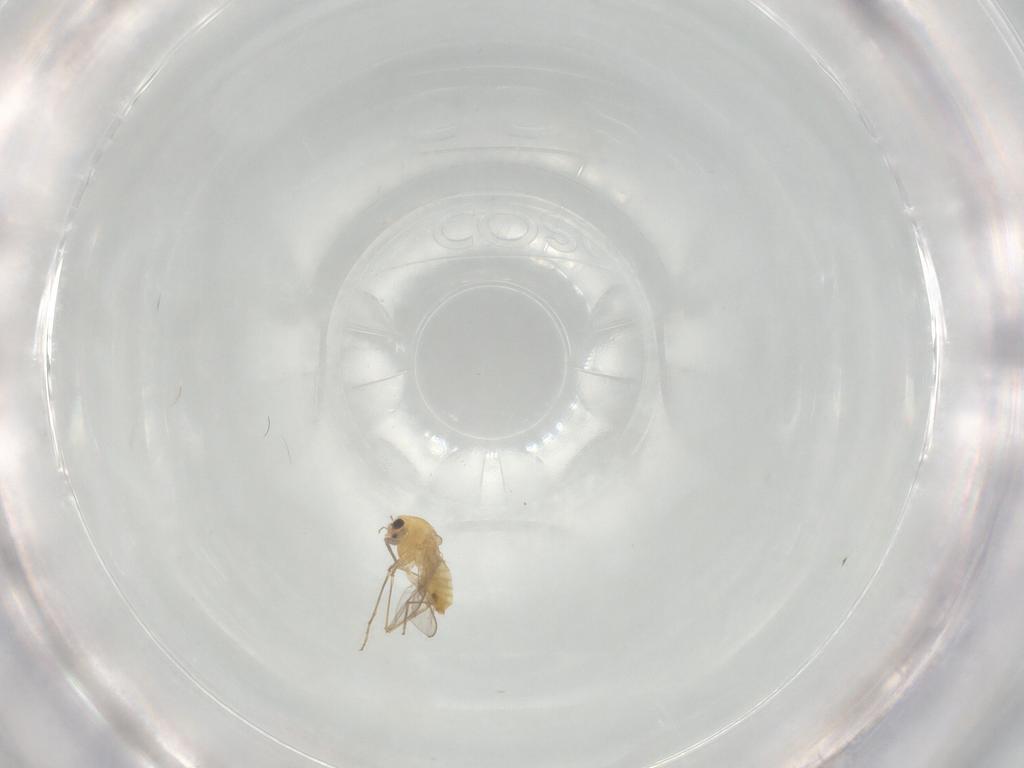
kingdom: Animalia
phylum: Arthropoda
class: Insecta
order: Diptera
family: Chironomidae
